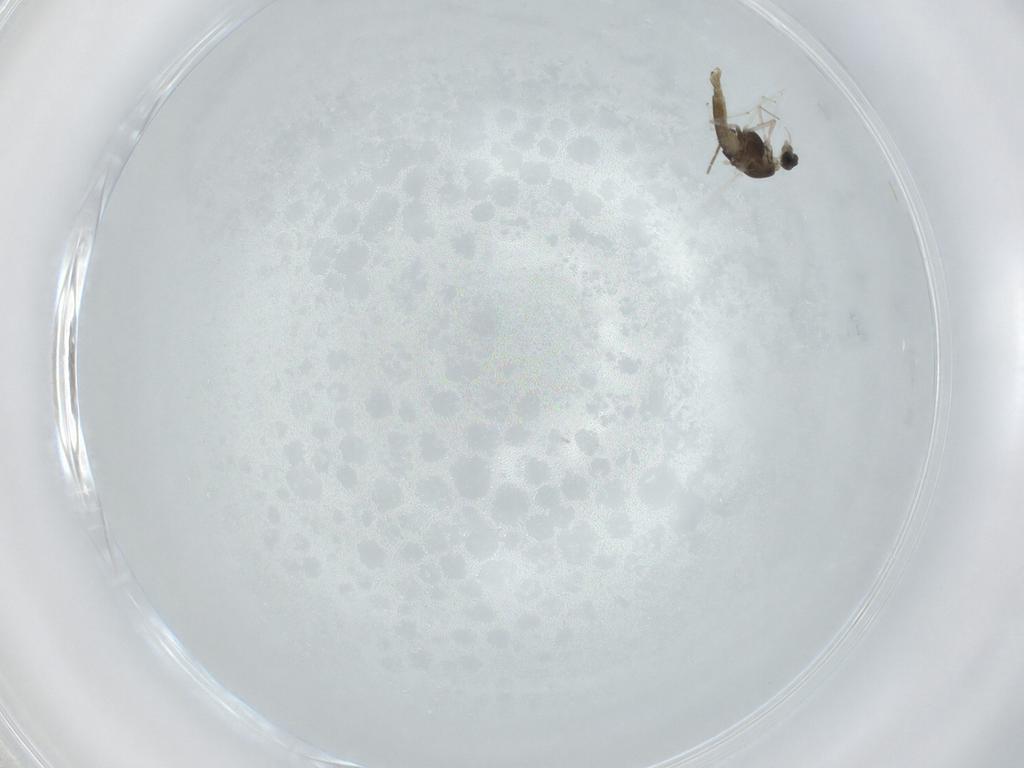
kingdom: Animalia
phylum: Arthropoda
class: Insecta
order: Diptera
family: Chironomidae
